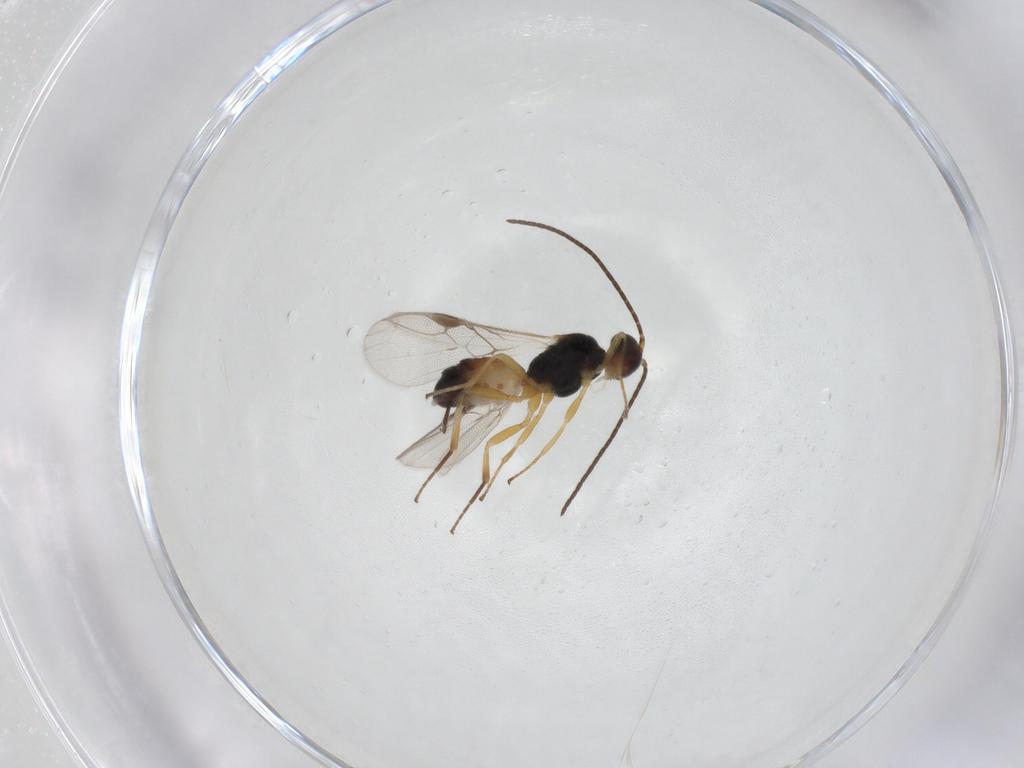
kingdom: Animalia
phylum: Arthropoda
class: Insecta
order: Hymenoptera
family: Braconidae
